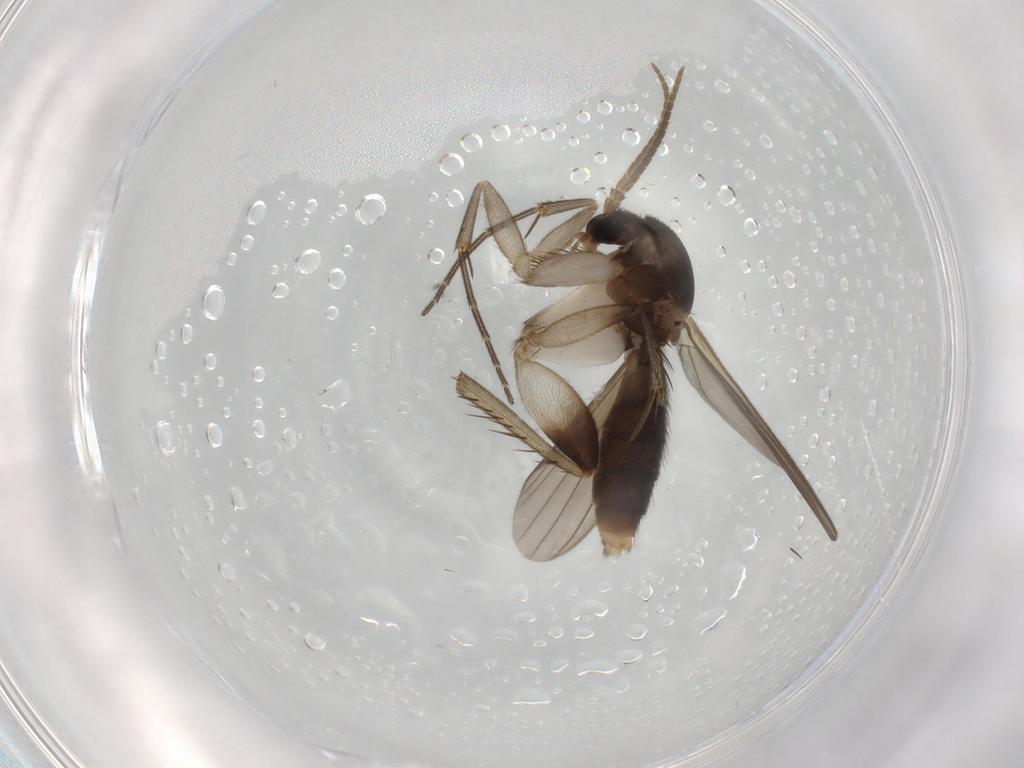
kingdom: Animalia
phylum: Arthropoda
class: Insecta
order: Diptera
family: Mycetophilidae
